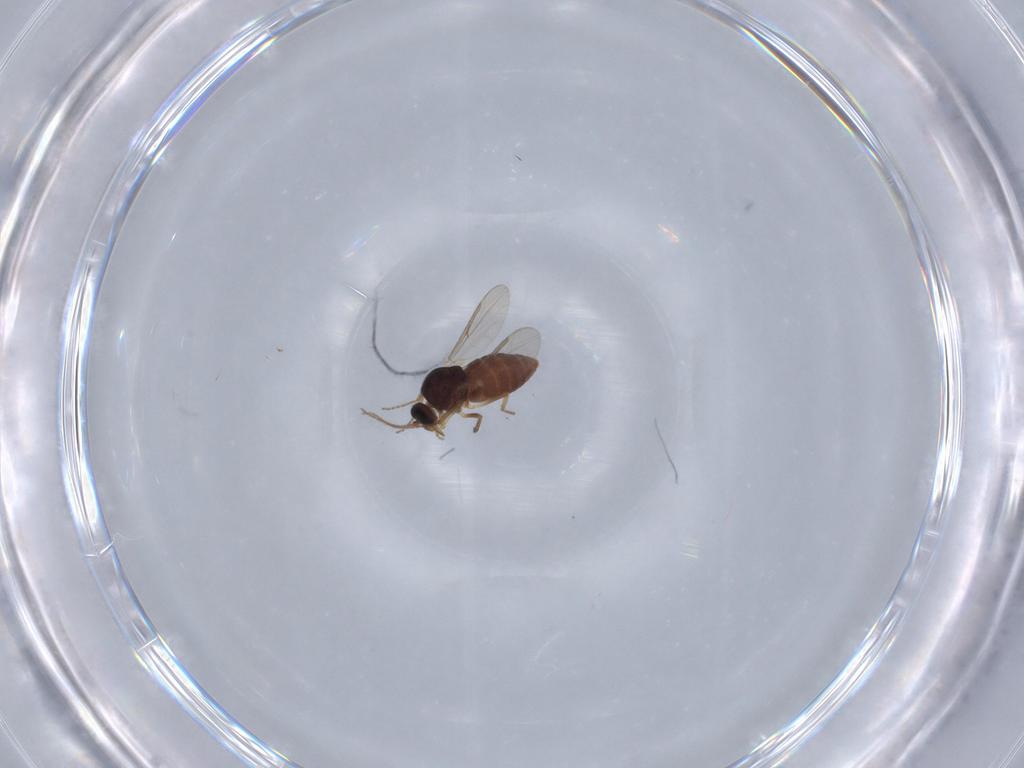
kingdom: Animalia
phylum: Arthropoda
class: Insecta
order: Diptera
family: Ceratopogonidae
